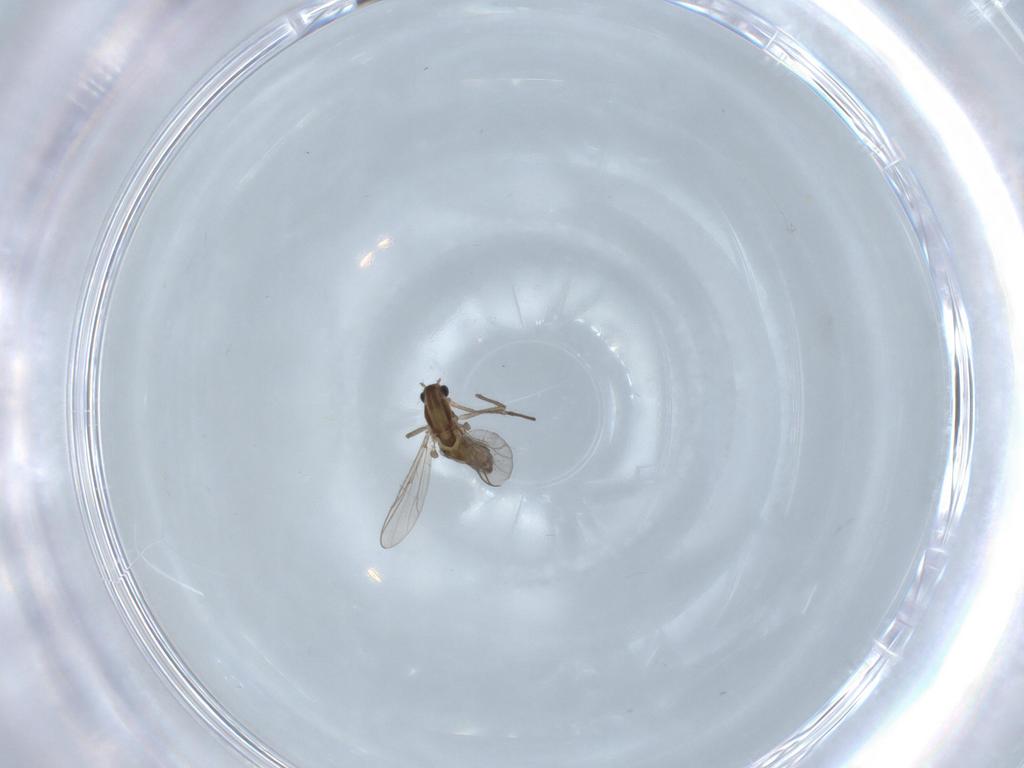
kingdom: Animalia
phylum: Arthropoda
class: Insecta
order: Diptera
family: Chironomidae
